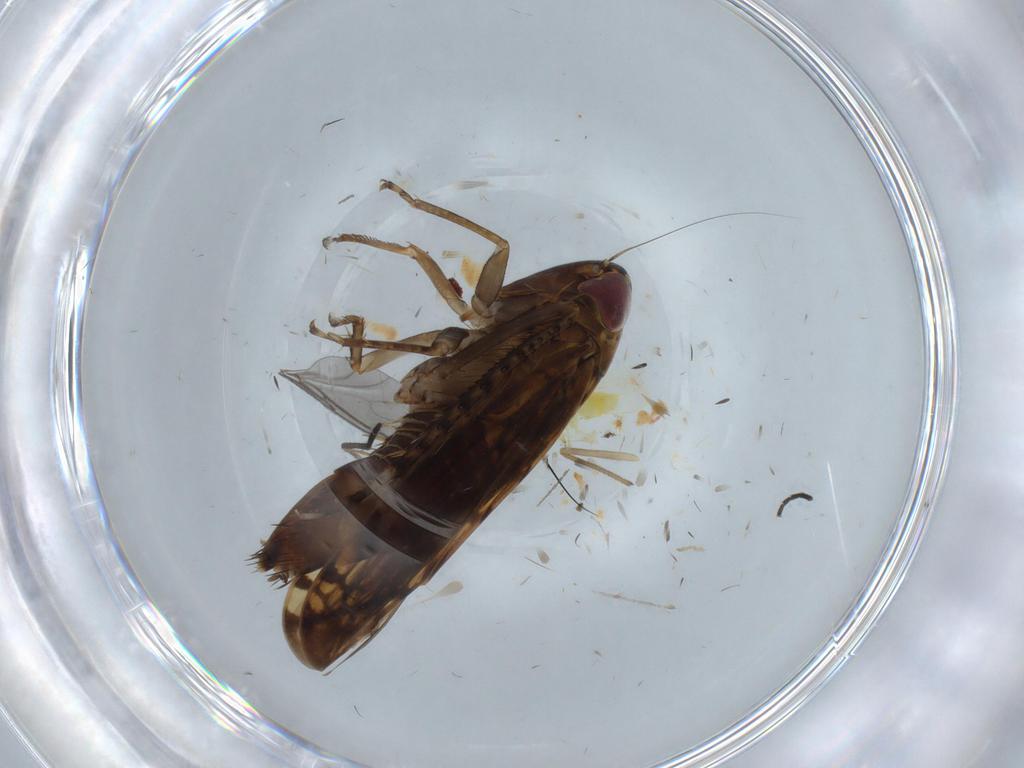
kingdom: Animalia
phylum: Arthropoda
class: Insecta
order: Hemiptera
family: Cicadellidae
